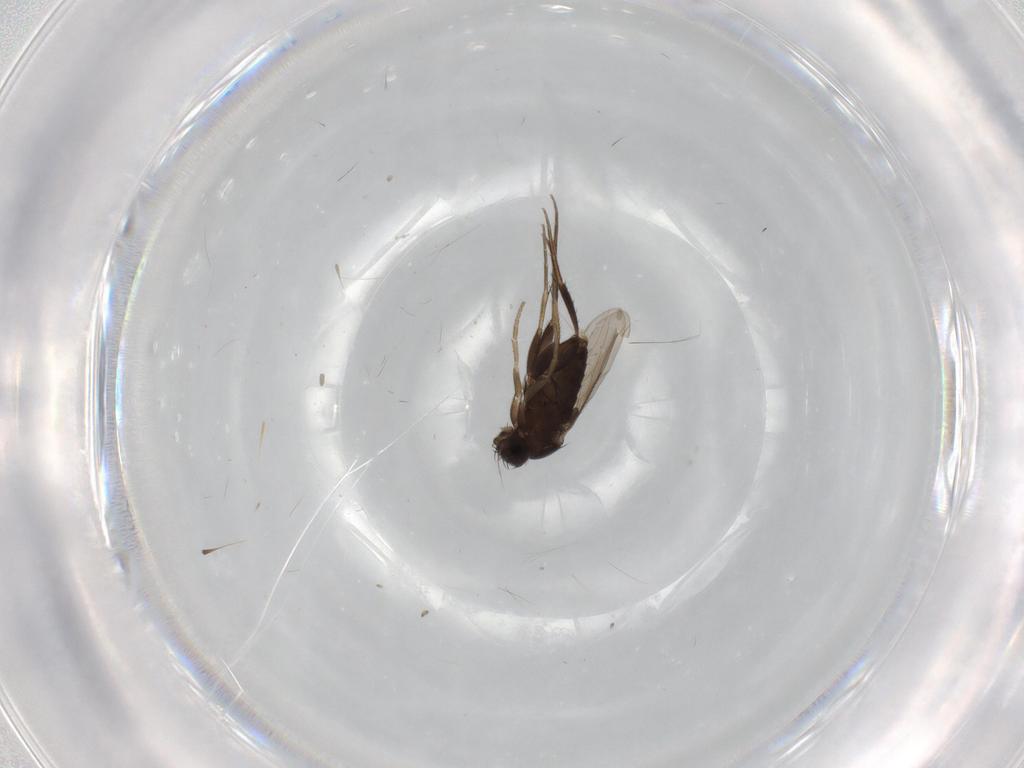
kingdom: Animalia
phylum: Arthropoda
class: Insecta
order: Diptera
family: Phoridae
